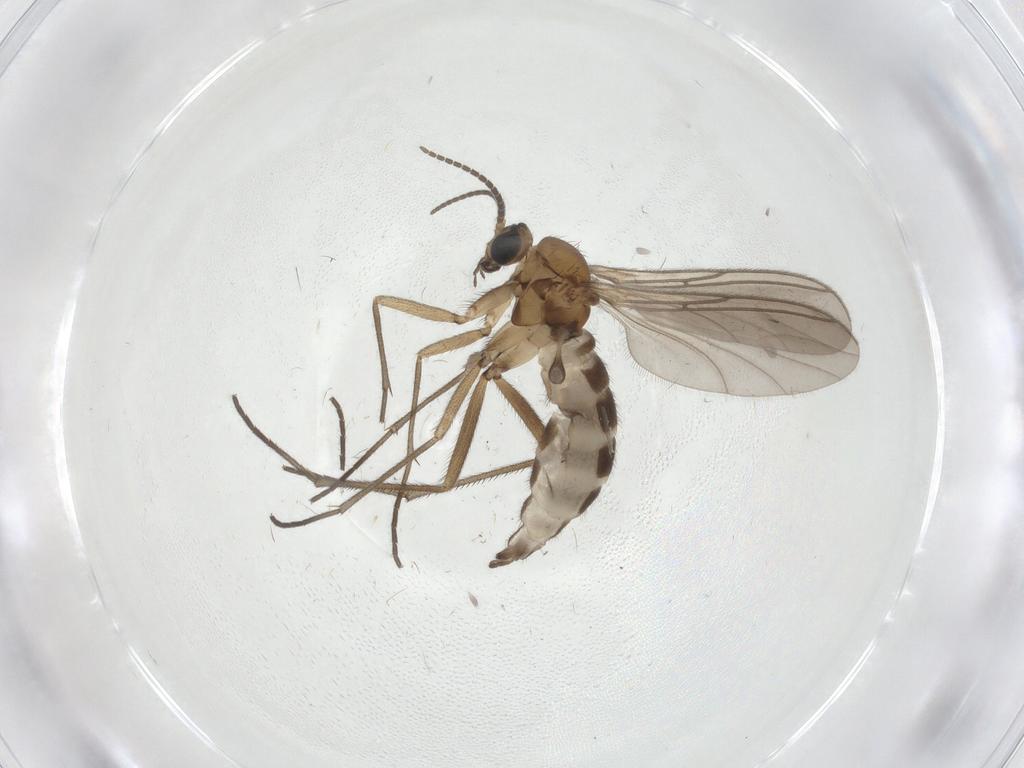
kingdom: Animalia
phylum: Arthropoda
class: Insecta
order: Diptera
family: Sciaridae
